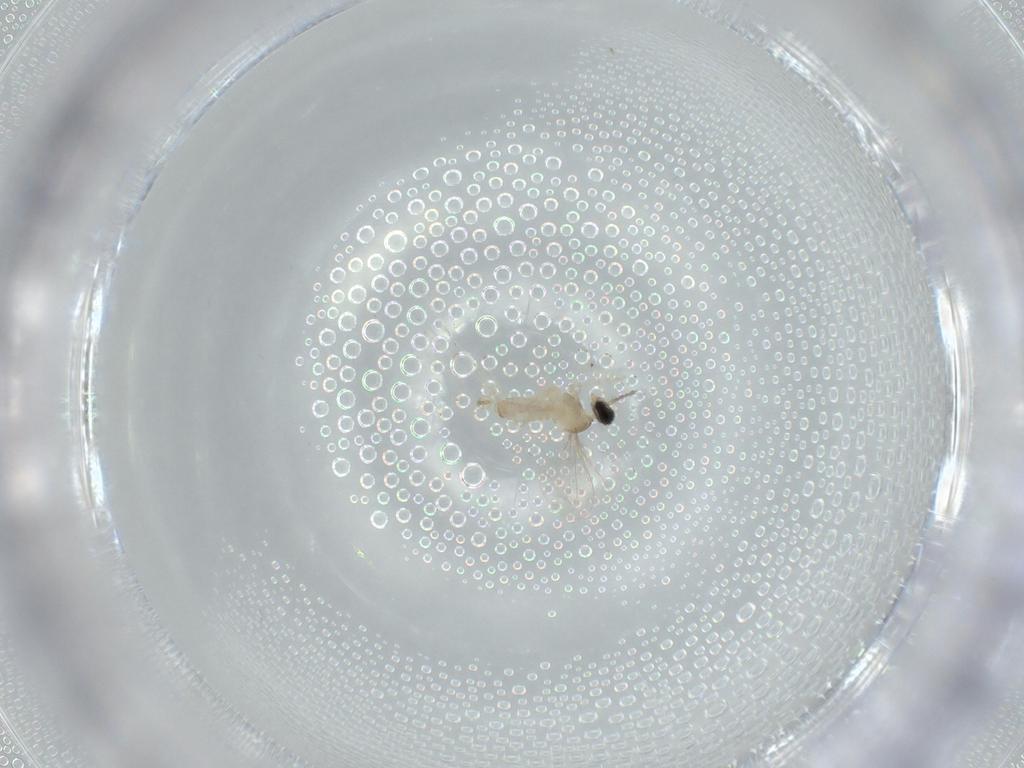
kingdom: Animalia
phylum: Arthropoda
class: Insecta
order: Diptera
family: Cecidomyiidae
